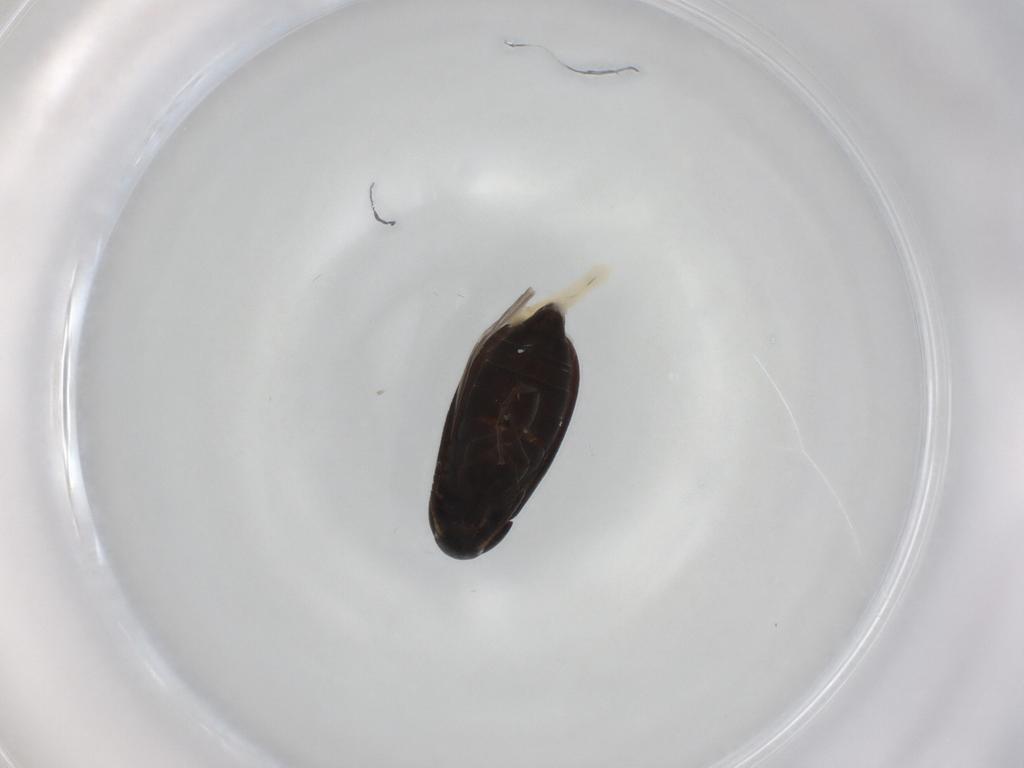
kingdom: Animalia
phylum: Arthropoda
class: Insecta
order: Coleoptera
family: Scraptiidae
